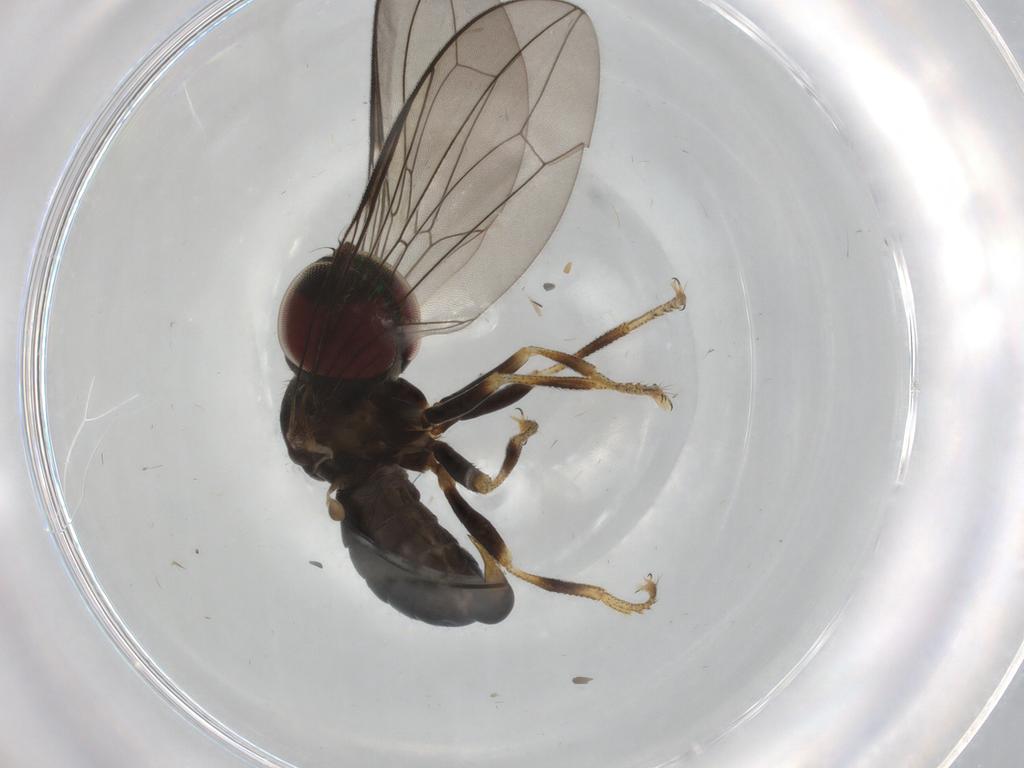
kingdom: Animalia
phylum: Arthropoda
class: Insecta
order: Diptera
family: Pipunculidae
